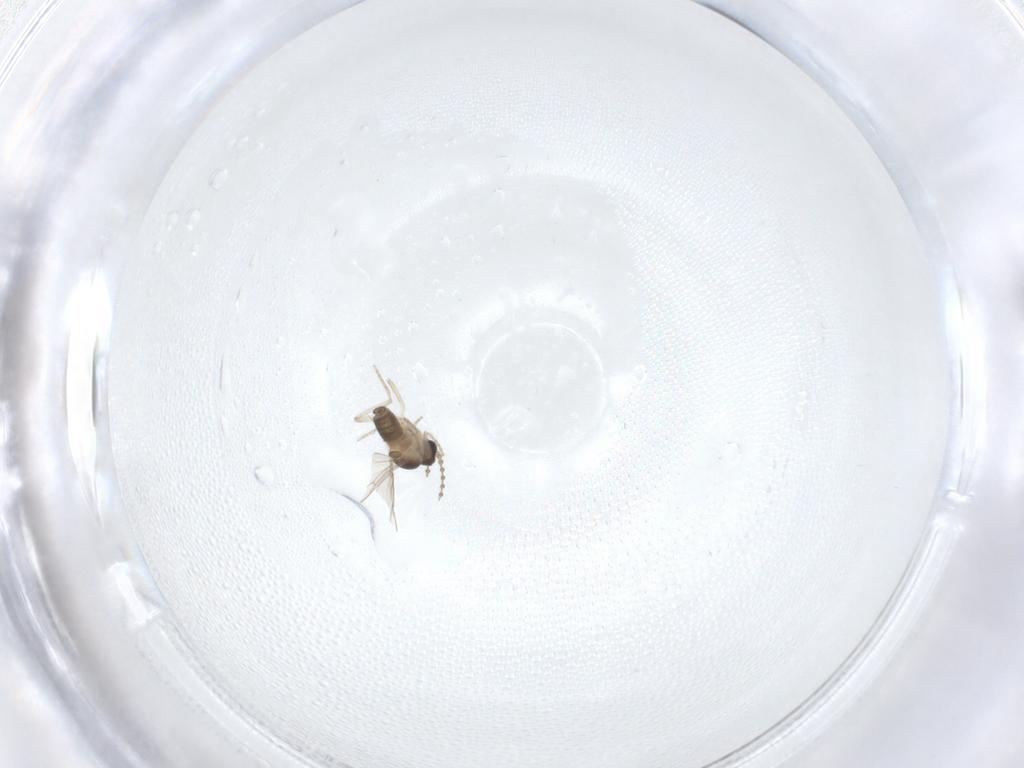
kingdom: Animalia
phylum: Arthropoda
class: Insecta
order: Diptera
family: Cecidomyiidae
